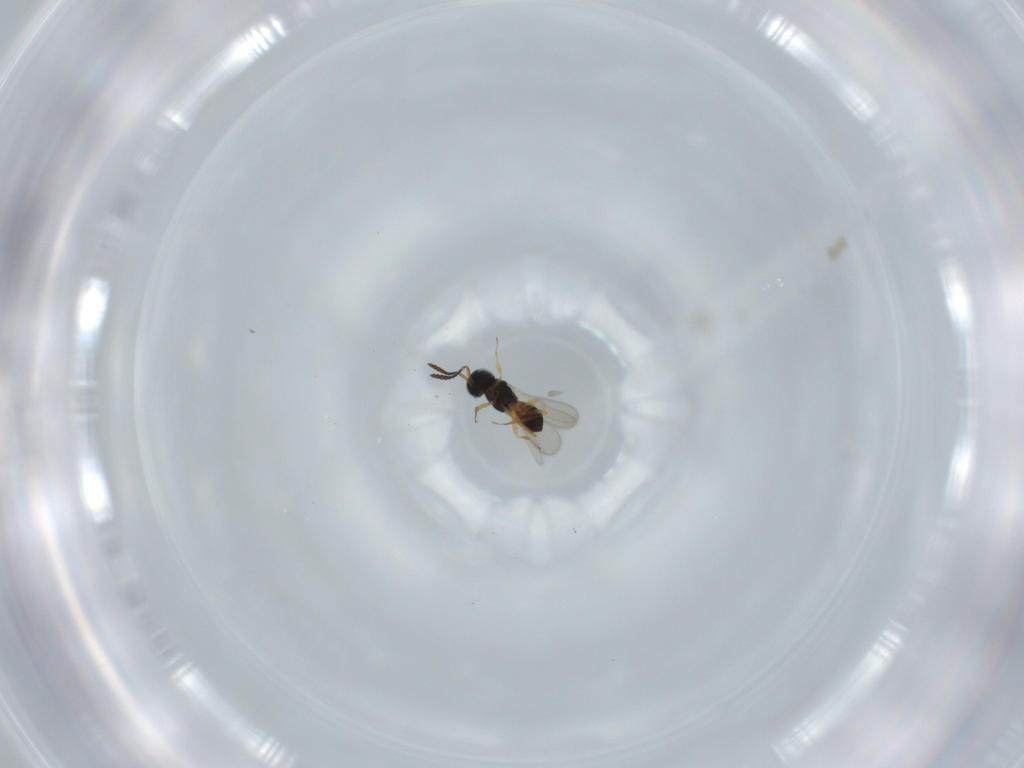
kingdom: Animalia
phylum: Arthropoda
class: Insecta
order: Hymenoptera
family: Scelionidae
